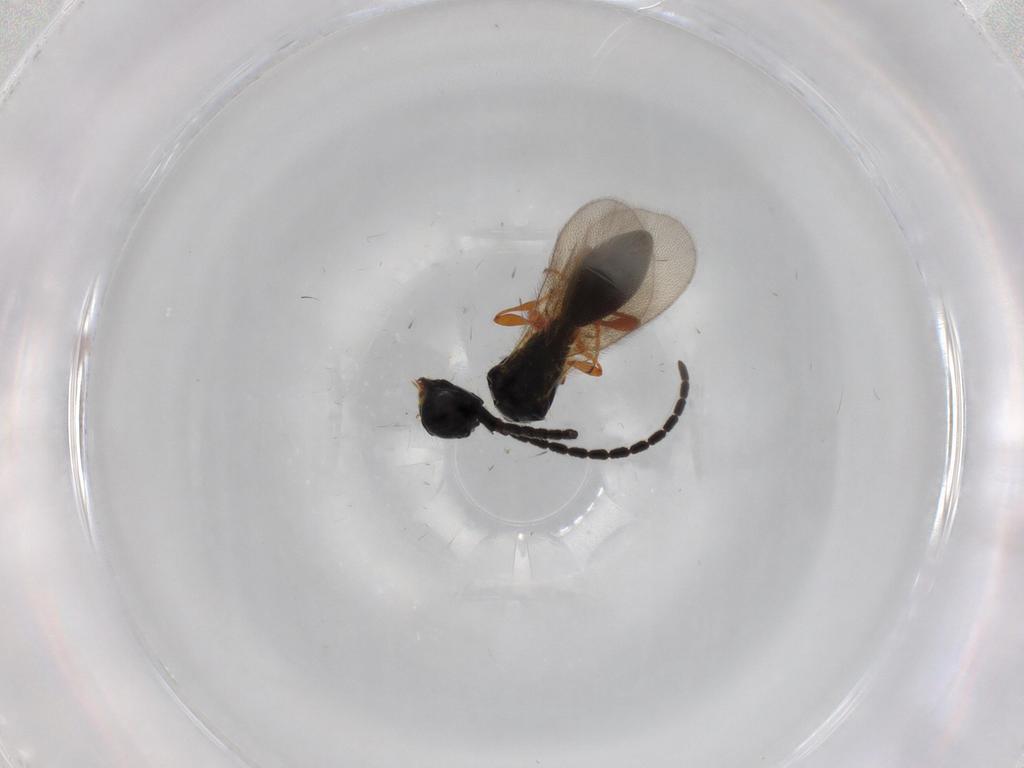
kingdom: Animalia
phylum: Arthropoda
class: Insecta
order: Hymenoptera
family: Diapriidae
